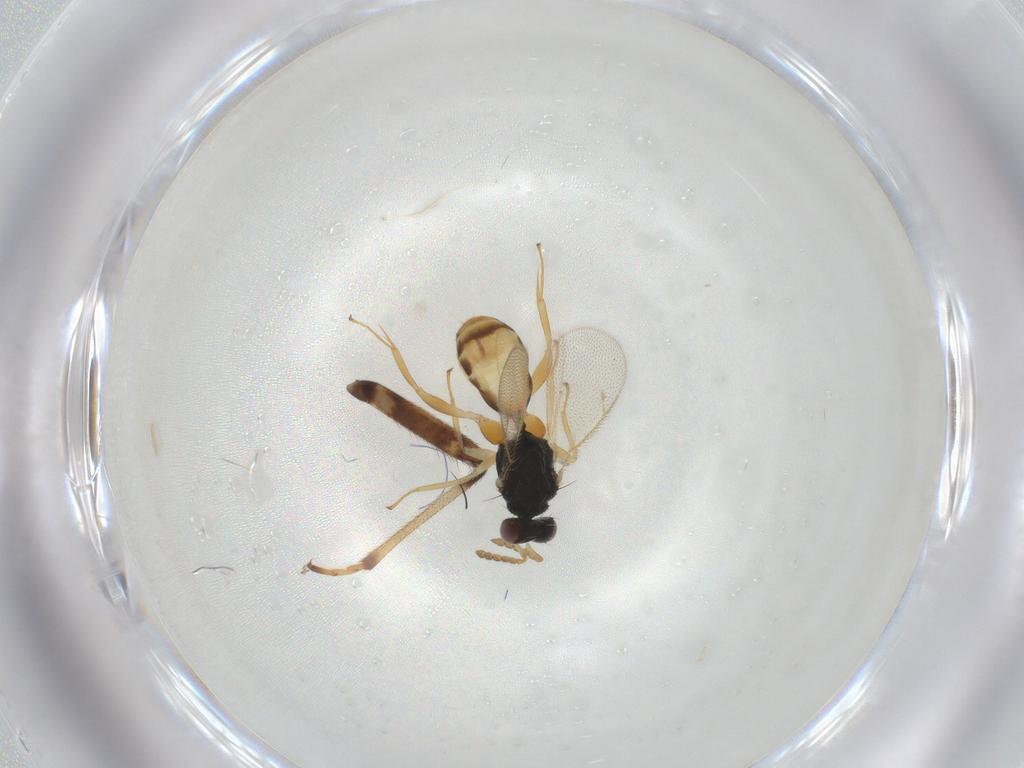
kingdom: Animalia
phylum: Arthropoda
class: Insecta
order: Hymenoptera
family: Eulophidae
